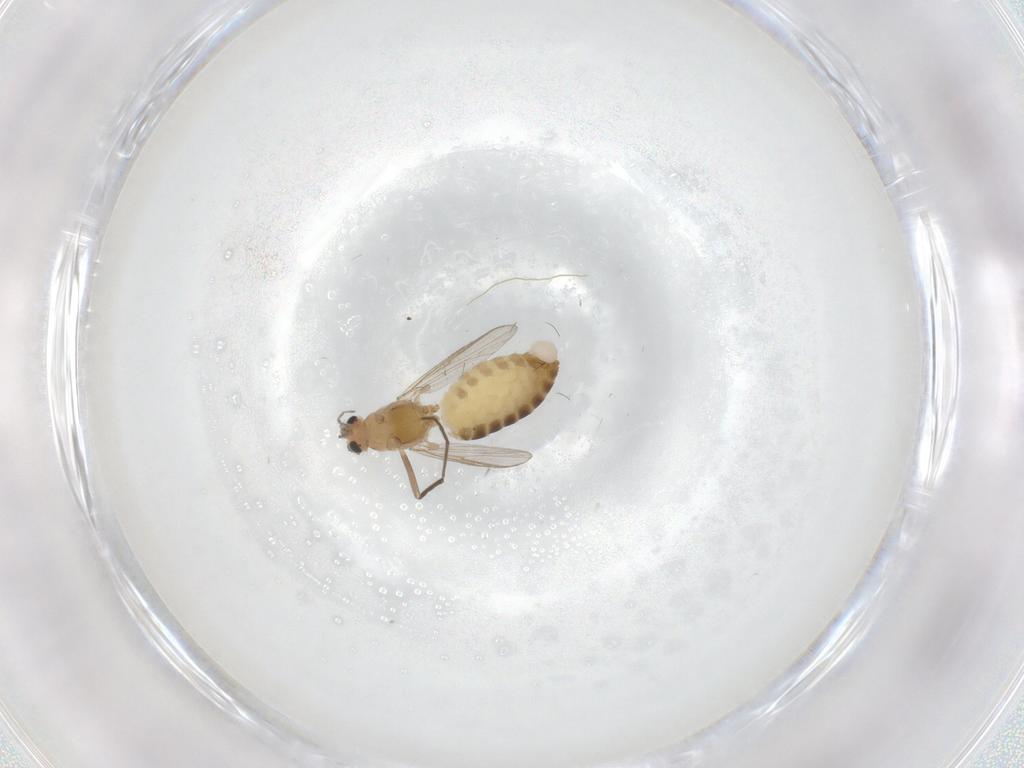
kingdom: Animalia
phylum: Arthropoda
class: Insecta
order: Diptera
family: Chironomidae
